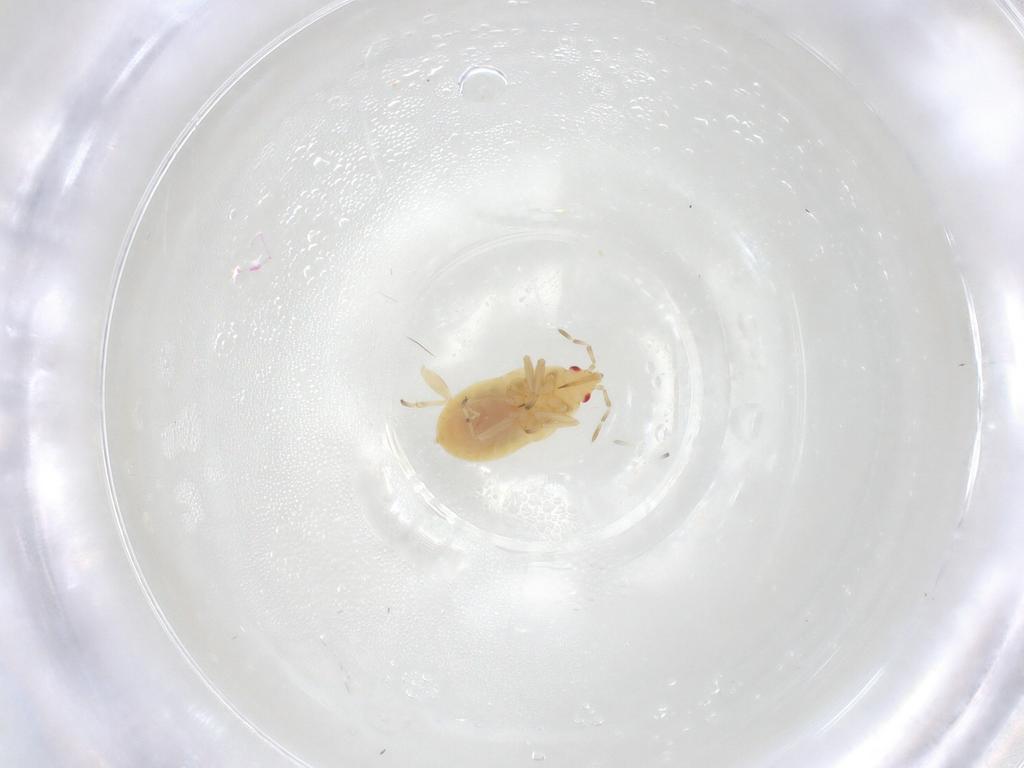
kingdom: Animalia
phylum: Arthropoda
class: Insecta
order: Hemiptera
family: Anthocoridae
